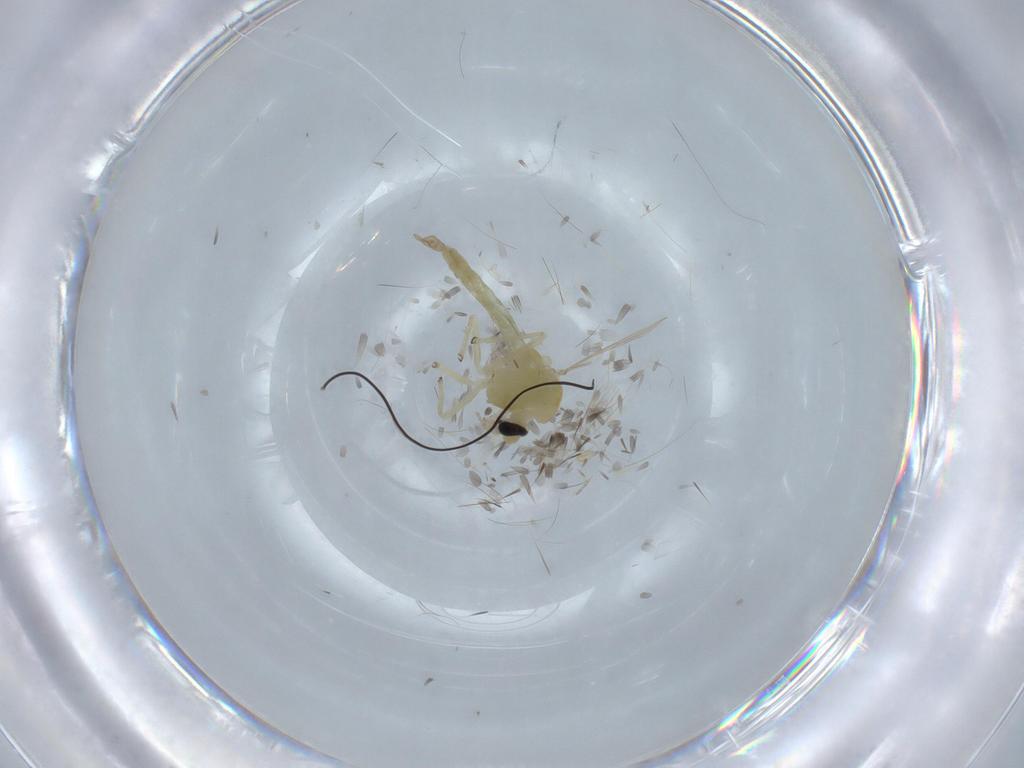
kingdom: Animalia
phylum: Arthropoda
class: Insecta
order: Diptera
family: Chironomidae
